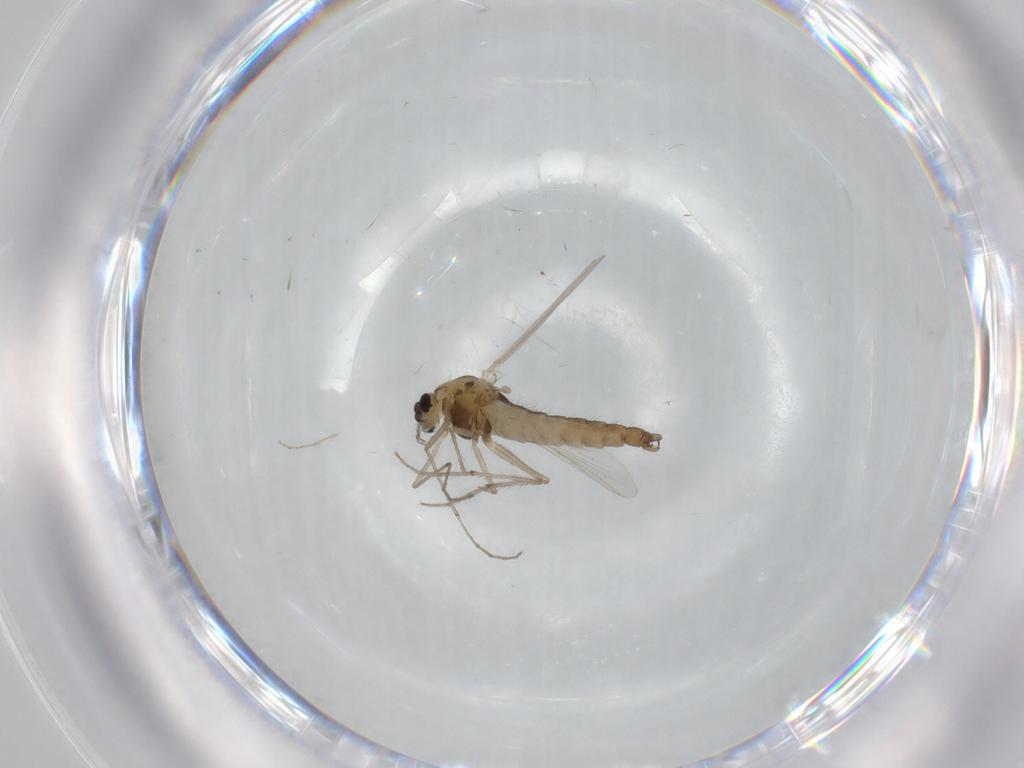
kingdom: Animalia
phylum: Arthropoda
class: Insecta
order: Diptera
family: Chironomidae
